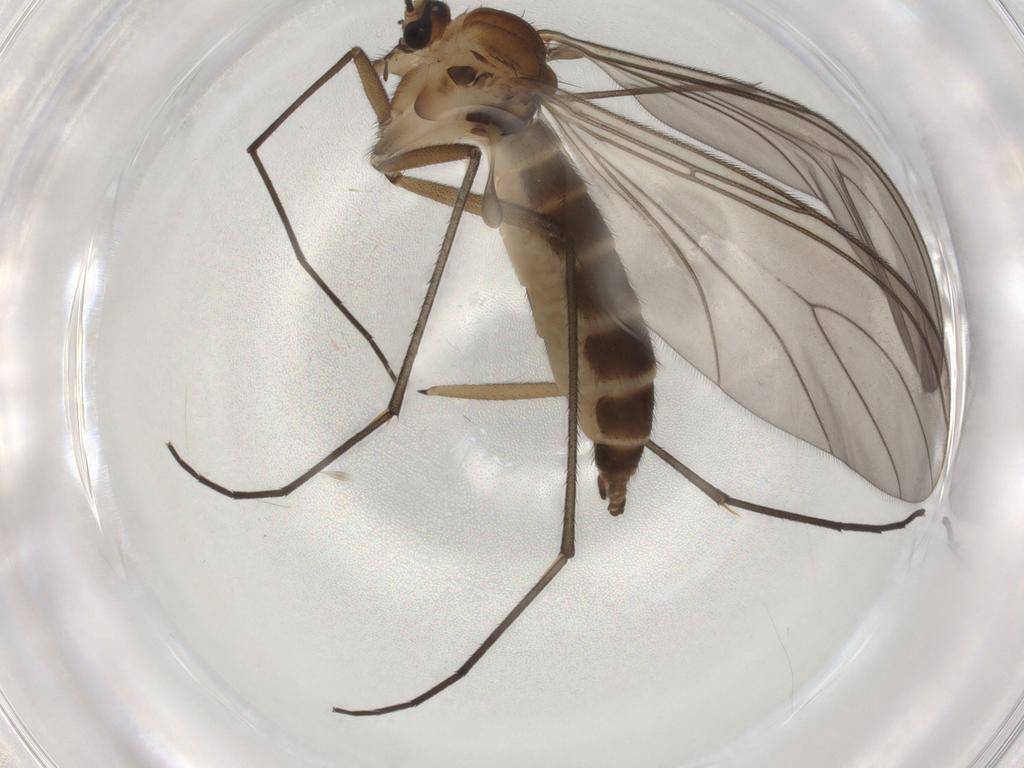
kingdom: Animalia
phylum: Arthropoda
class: Insecta
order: Diptera
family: Sciaridae
